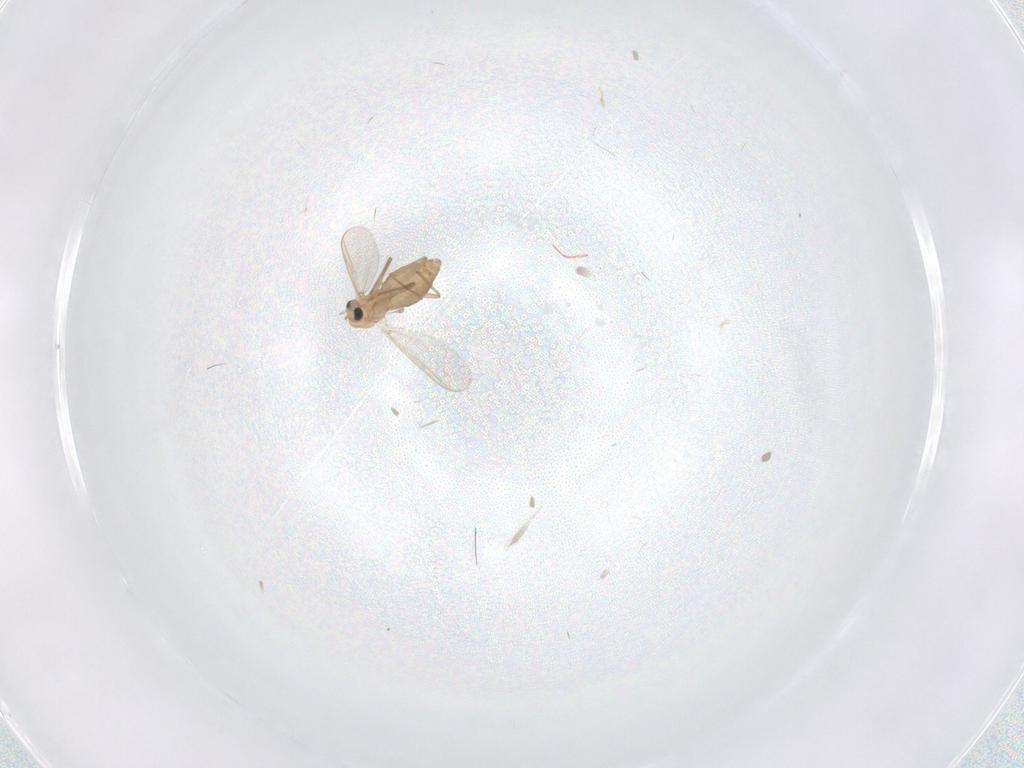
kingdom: Animalia
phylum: Arthropoda
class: Insecta
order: Diptera
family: Chironomidae
